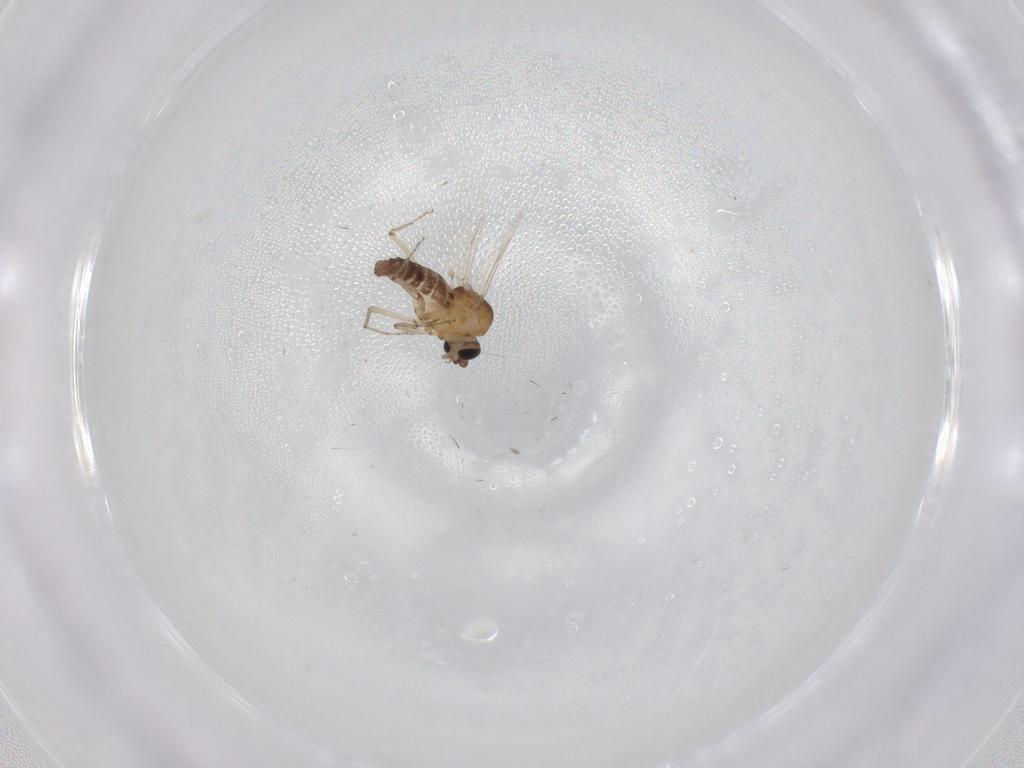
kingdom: Animalia
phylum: Arthropoda
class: Insecta
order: Diptera
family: Ceratopogonidae
